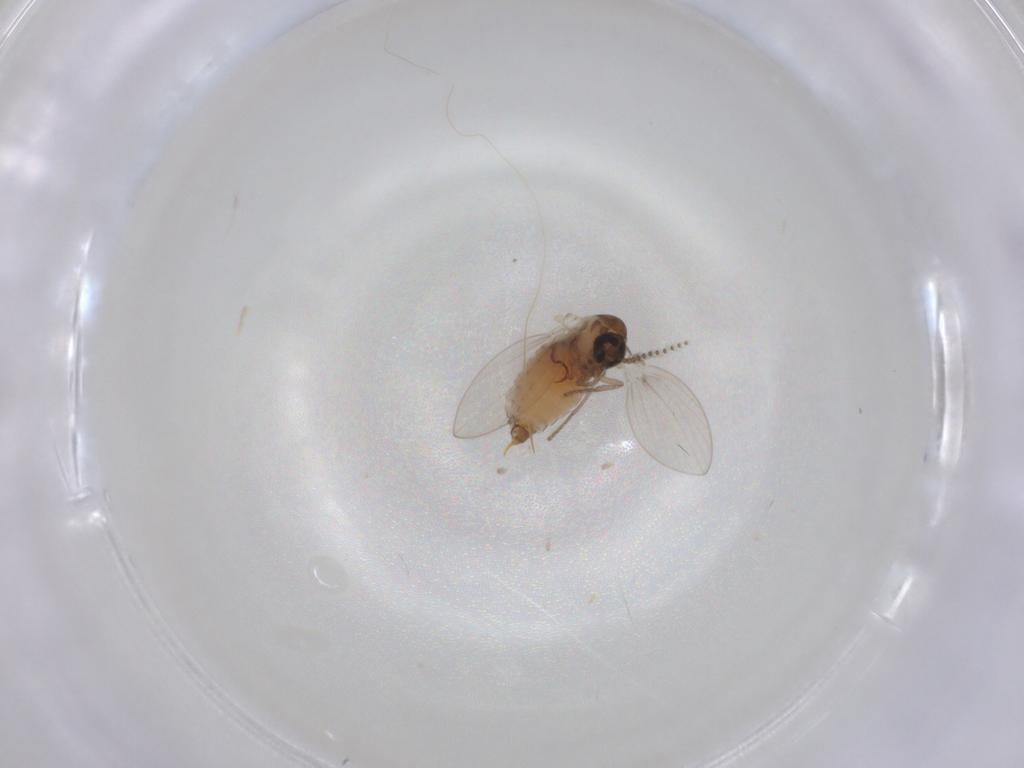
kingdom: Animalia
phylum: Arthropoda
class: Insecta
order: Diptera
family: Psychodidae
